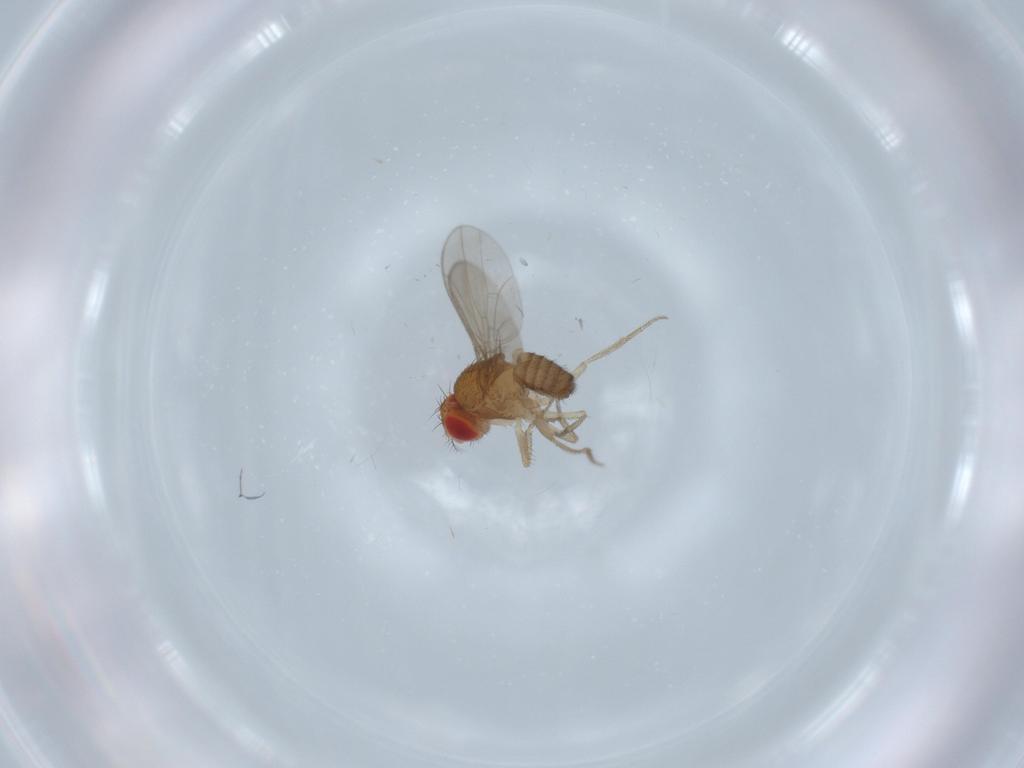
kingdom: Animalia
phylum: Arthropoda
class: Insecta
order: Diptera
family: Drosophilidae
